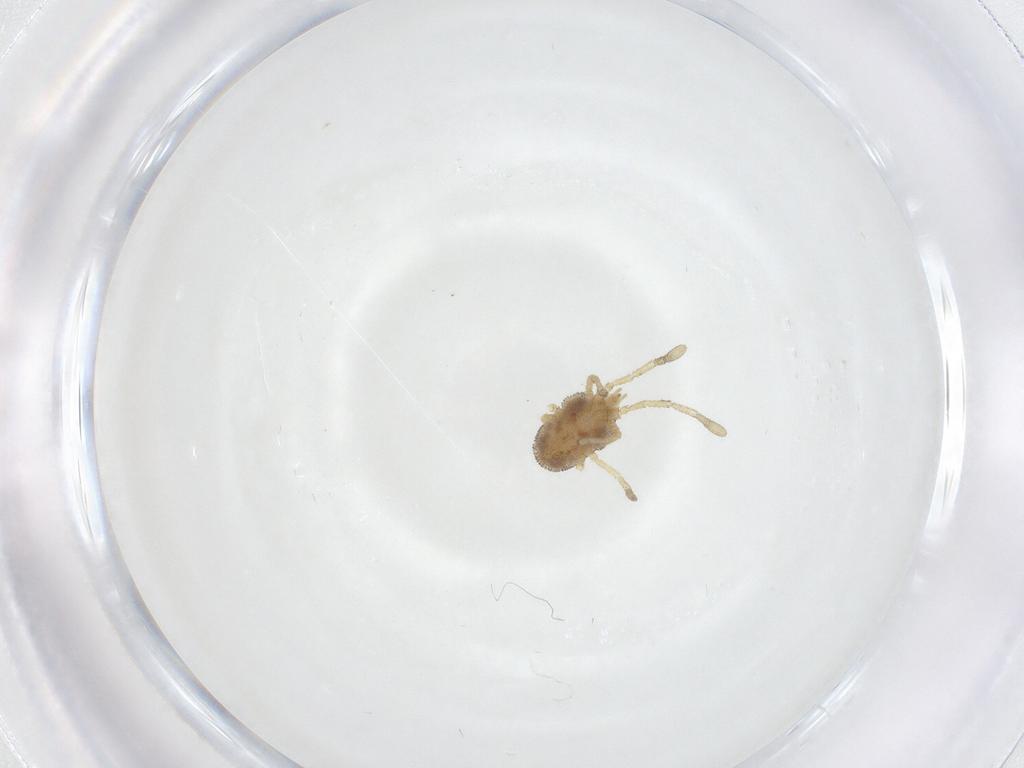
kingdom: Animalia
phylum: Arthropoda
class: Arachnida
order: Trombidiformes
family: Smarididae
